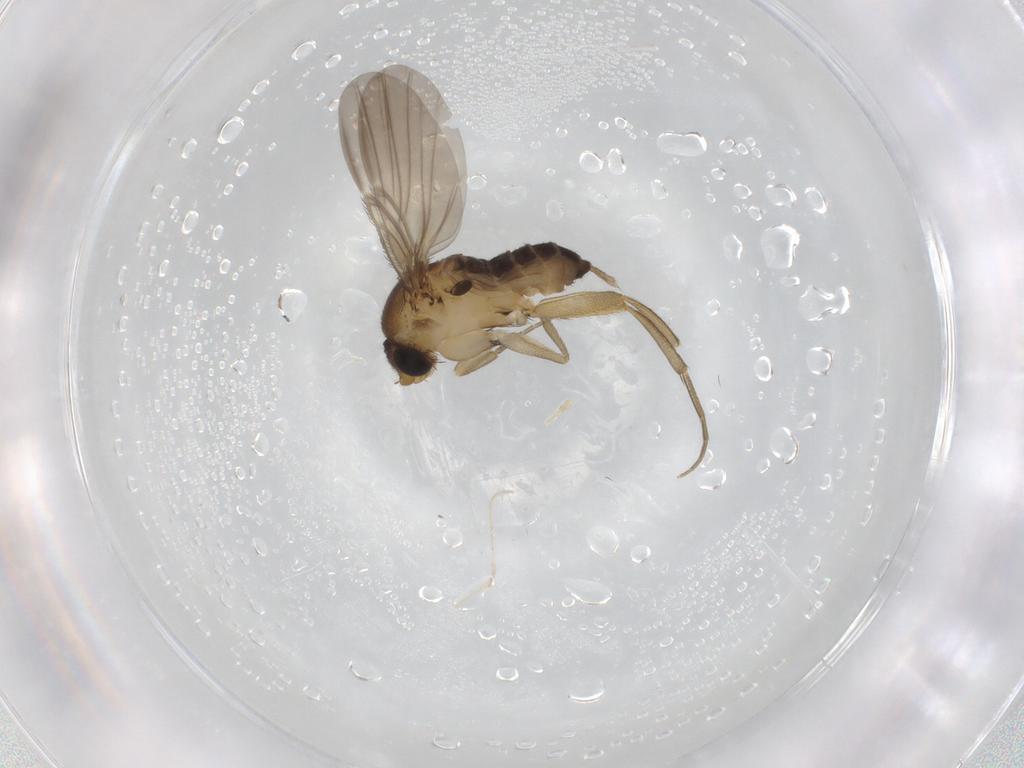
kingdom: Animalia
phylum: Arthropoda
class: Insecta
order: Diptera
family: Phoridae
